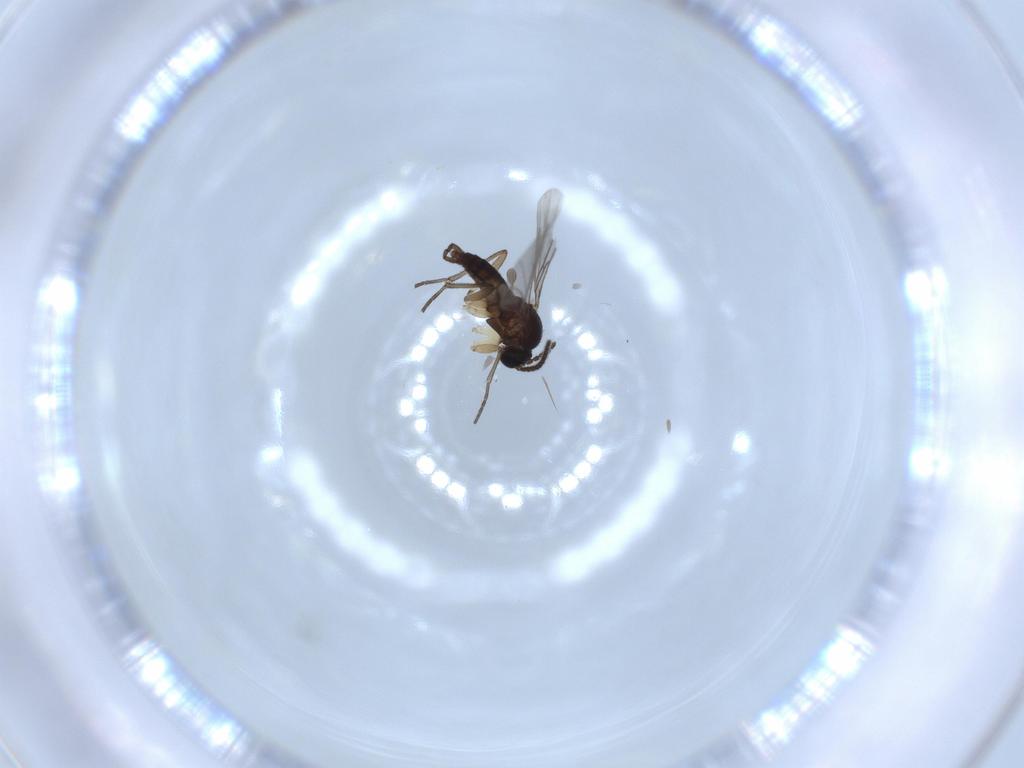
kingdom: Animalia
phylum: Arthropoda
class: Insecta
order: Diptera
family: Sciaridae
